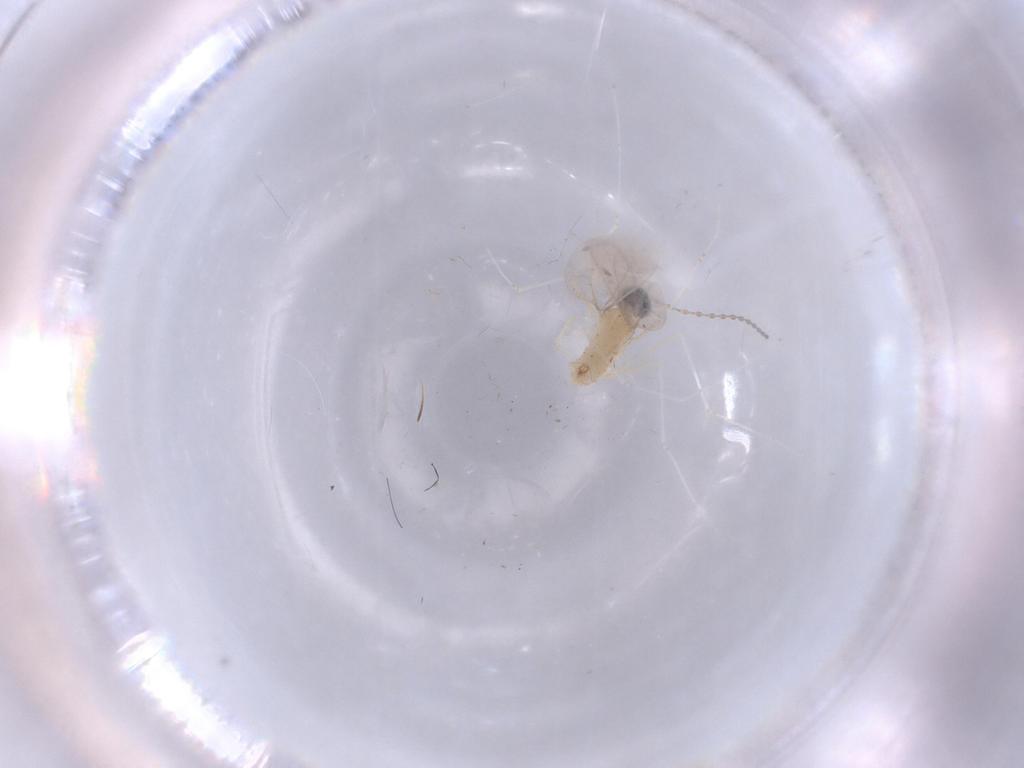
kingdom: Animalia
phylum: Arthropoda
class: Insecta
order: Diptera
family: Cecidomyiidae
